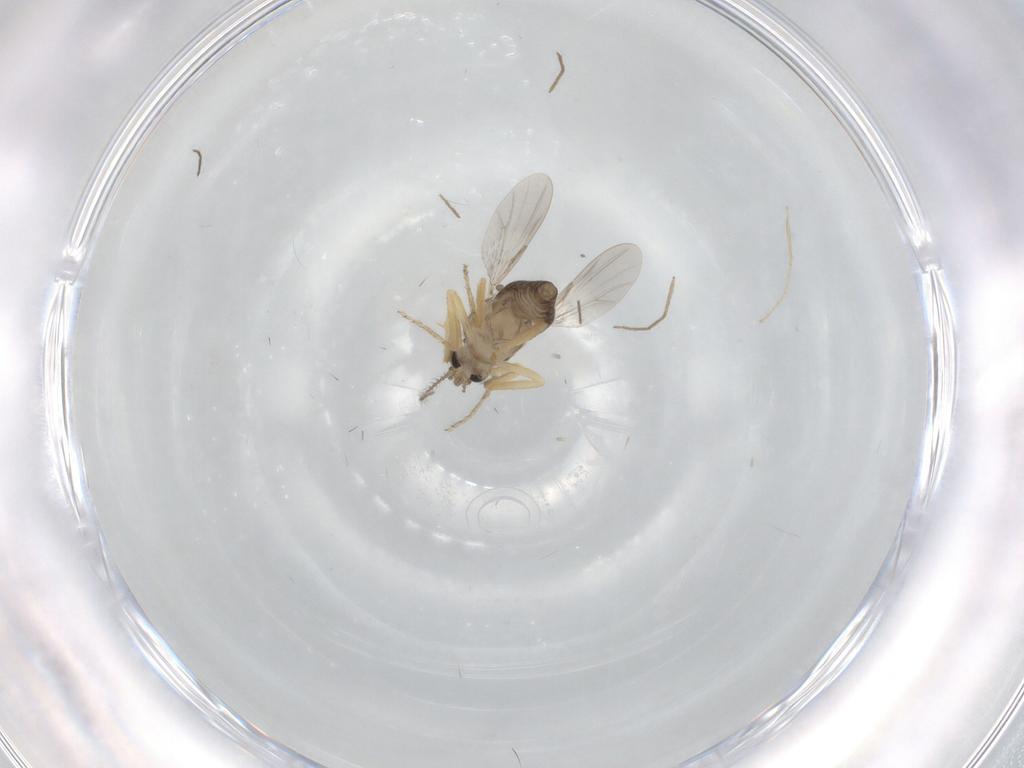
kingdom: Animalia
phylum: Arthropoda
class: Insecta
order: Diptera
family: Ceratopogonidae
